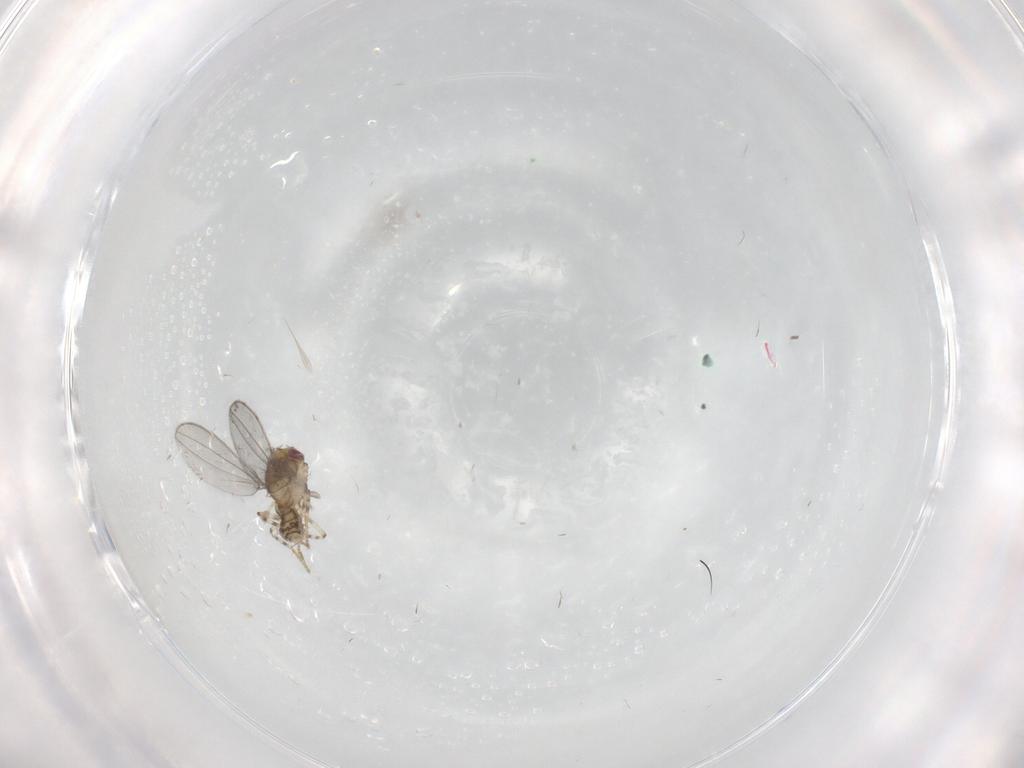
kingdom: Animalia
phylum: Arthropoda
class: Insecta
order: Diptera
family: Asteiidae
